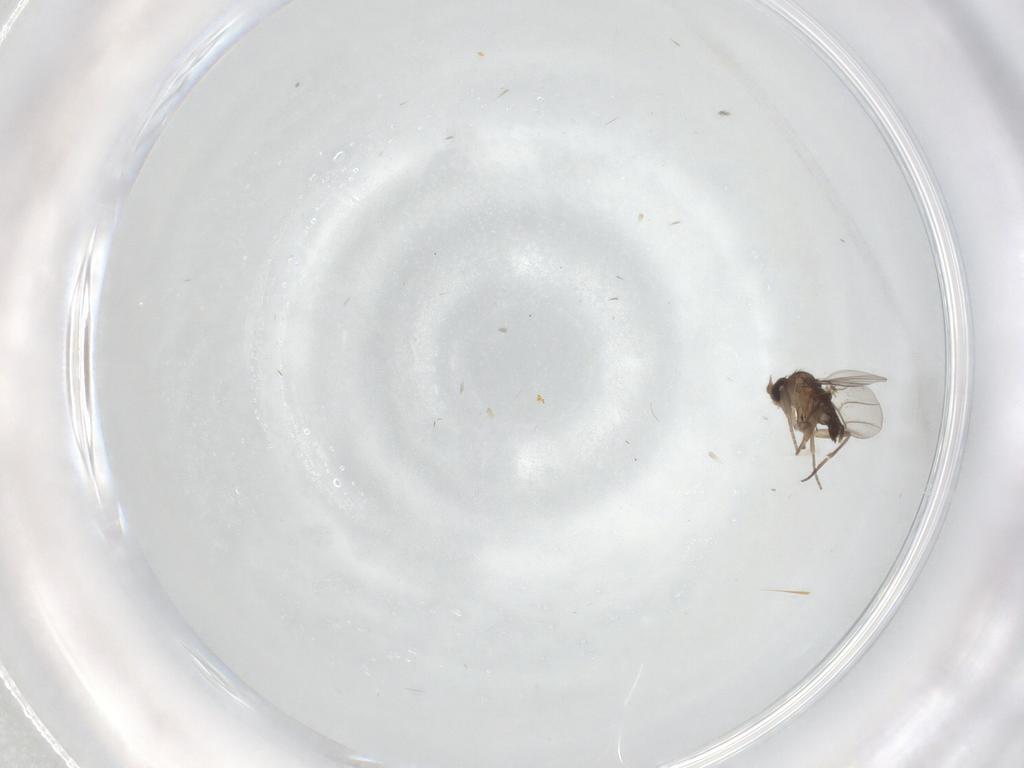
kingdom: Animalia
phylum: Arthropoda
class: Insecta
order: Diptera
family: Phoridae
